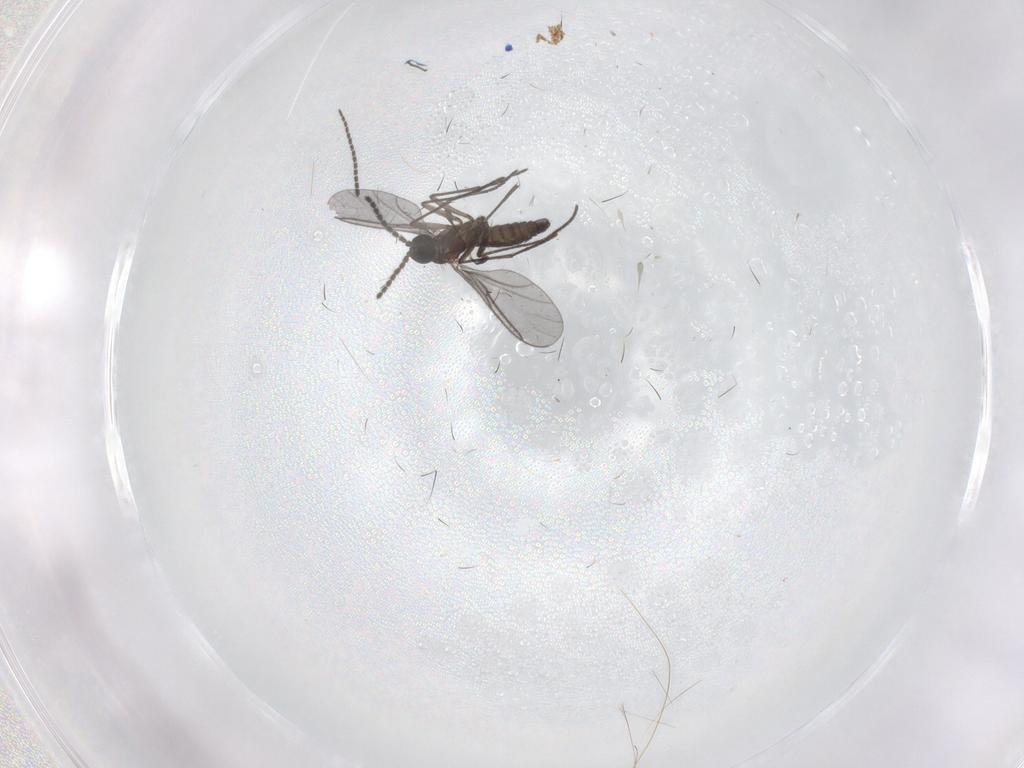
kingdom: Animalia
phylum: Arthropoda
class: Insecta
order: Diptera
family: Sciaridae
